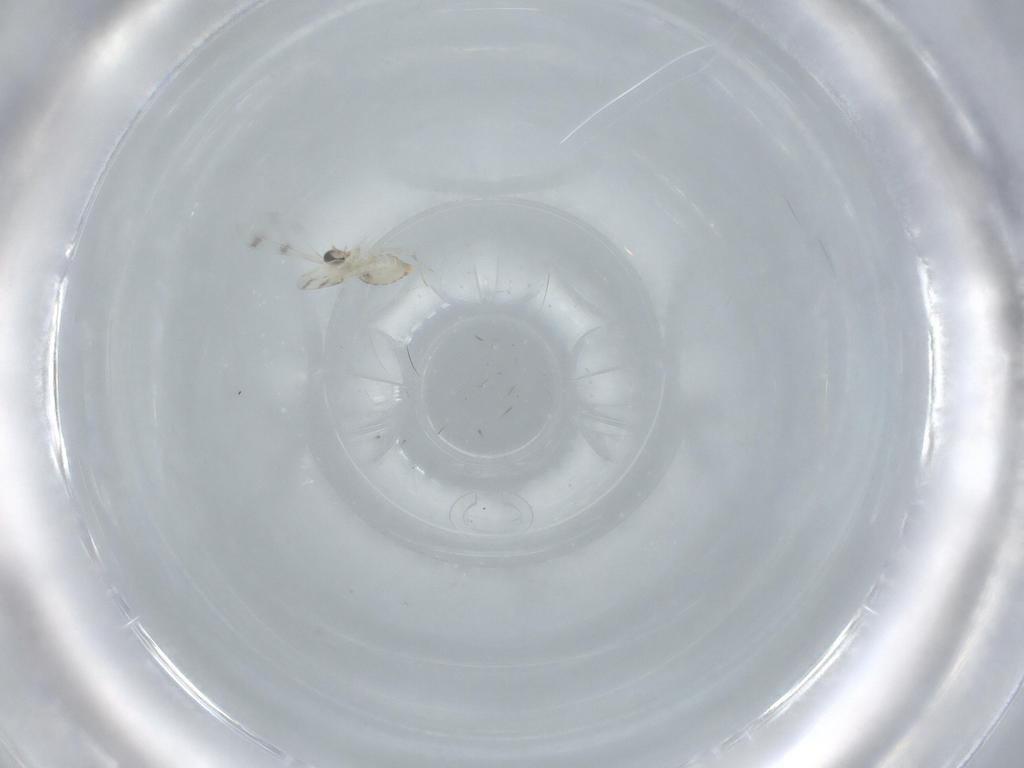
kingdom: Animalia
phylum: Arthropoda
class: Insecta
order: Diptera
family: Cecidomyiidae
